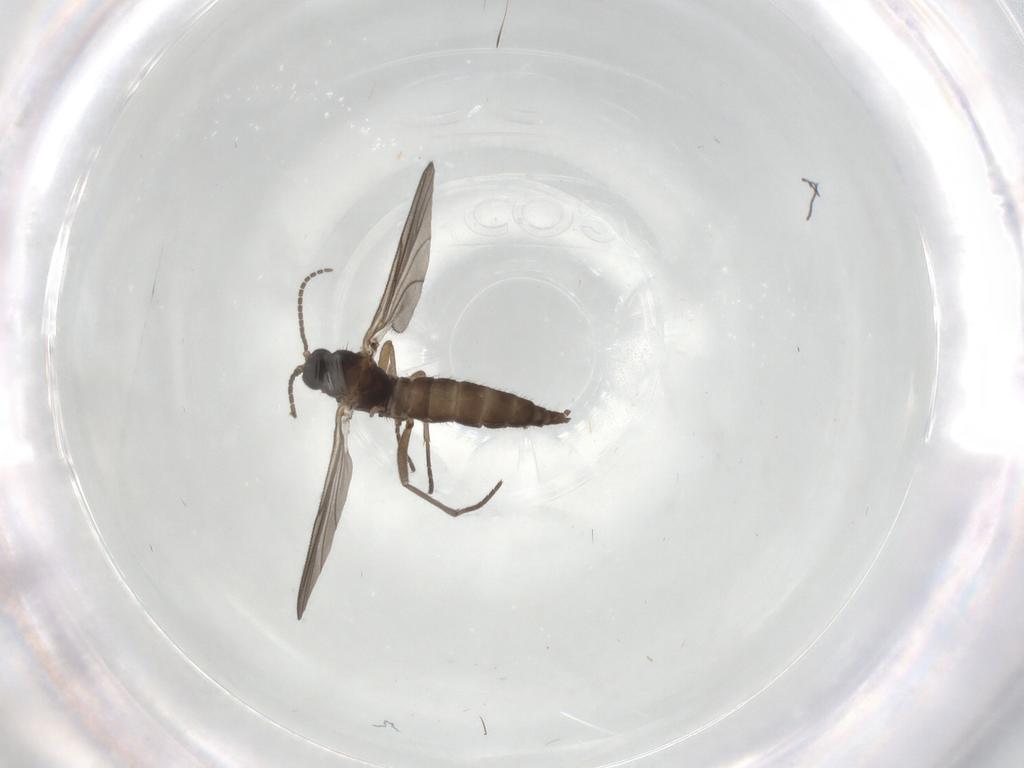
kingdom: Animalia
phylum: Arthropoda
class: Insecta
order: Diptera
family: Sciaridae
